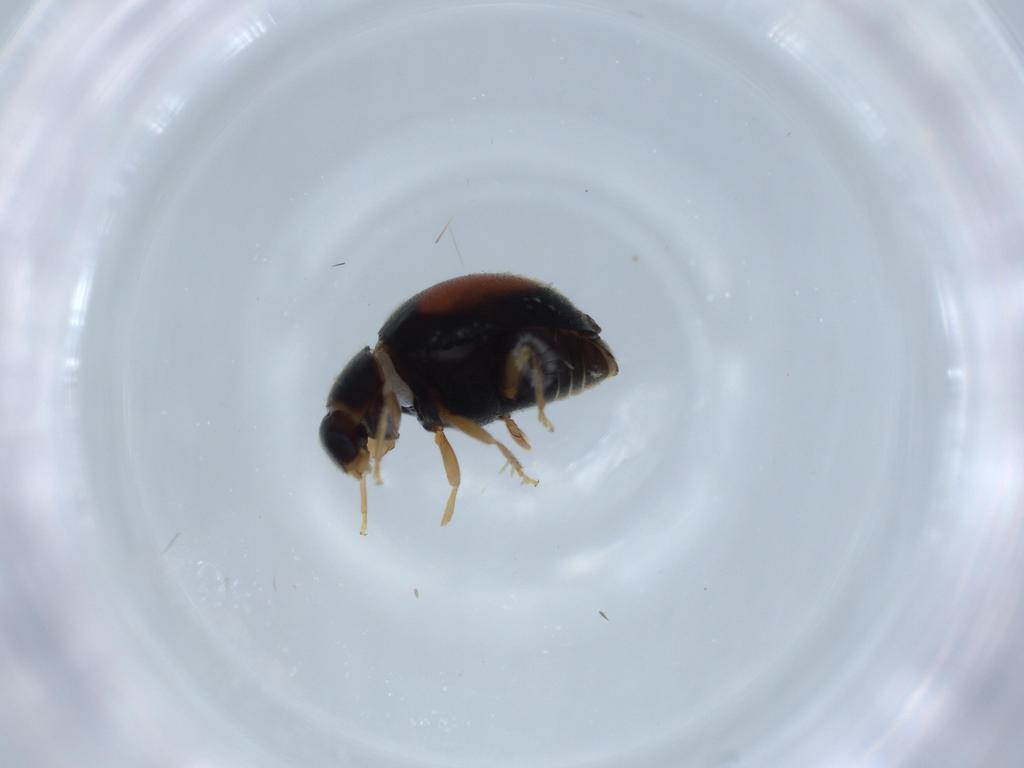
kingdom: Animalia
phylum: Arthropoda
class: Insecta
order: Coleoptera
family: Coccinellidae
